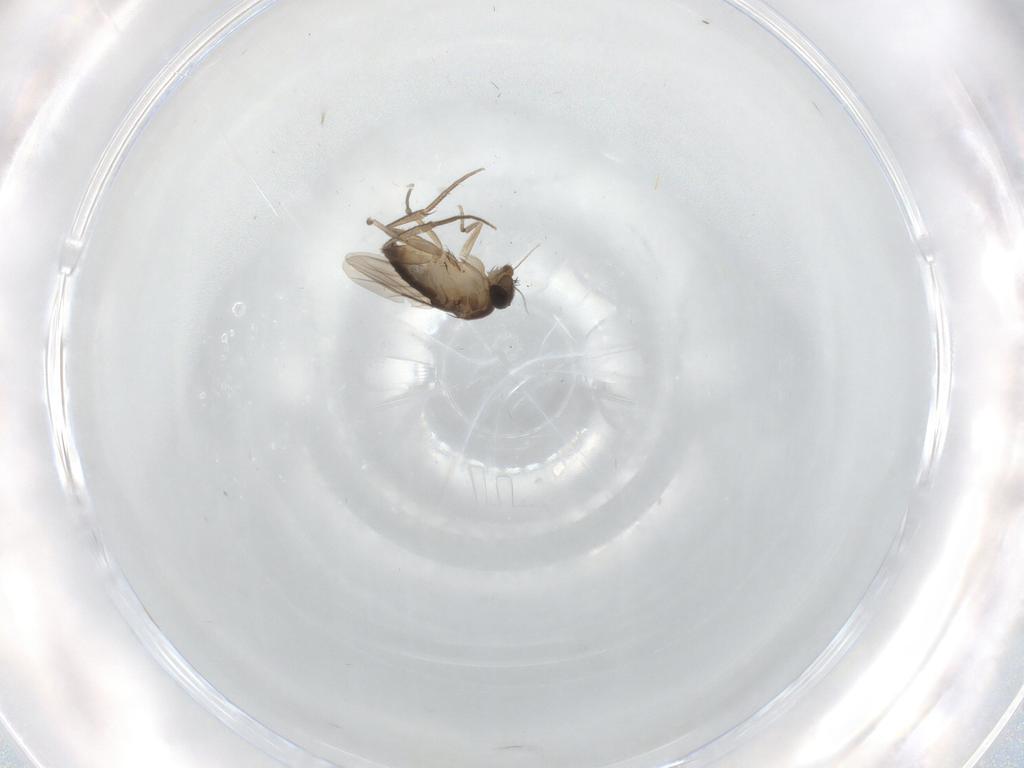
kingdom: Animalia
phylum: Arthropoda
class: Insecta
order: Diptera
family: Phoridae
